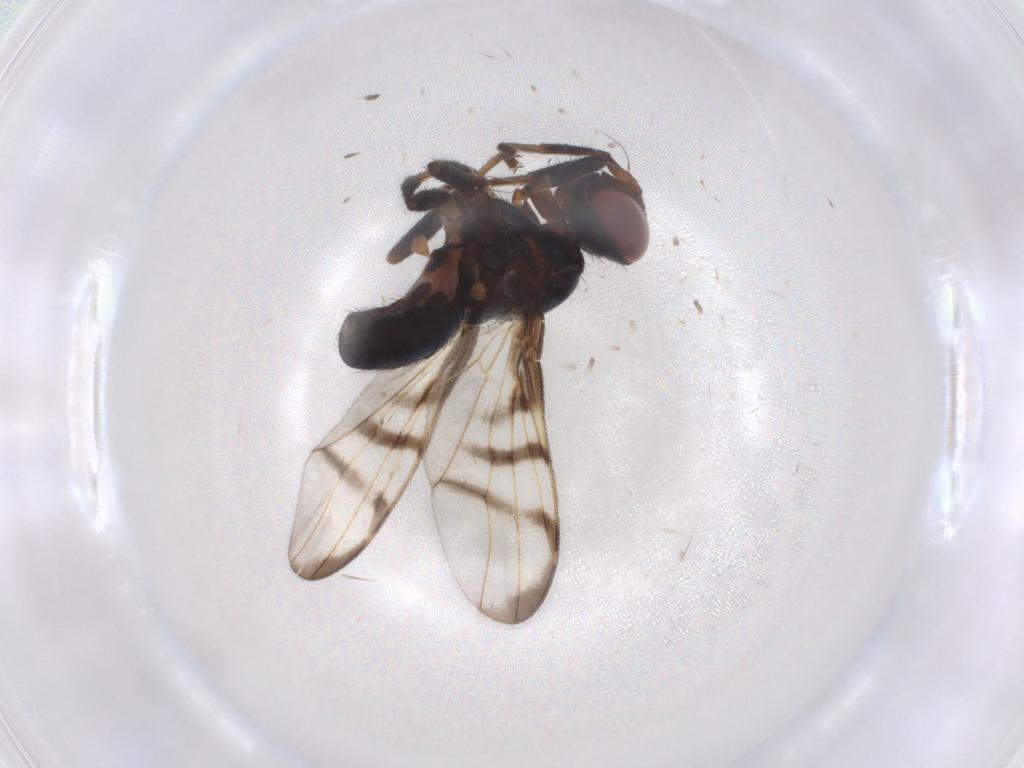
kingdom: Animalia
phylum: Arthropoda
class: Insecta
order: Diptera
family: Cecidomyiidae
